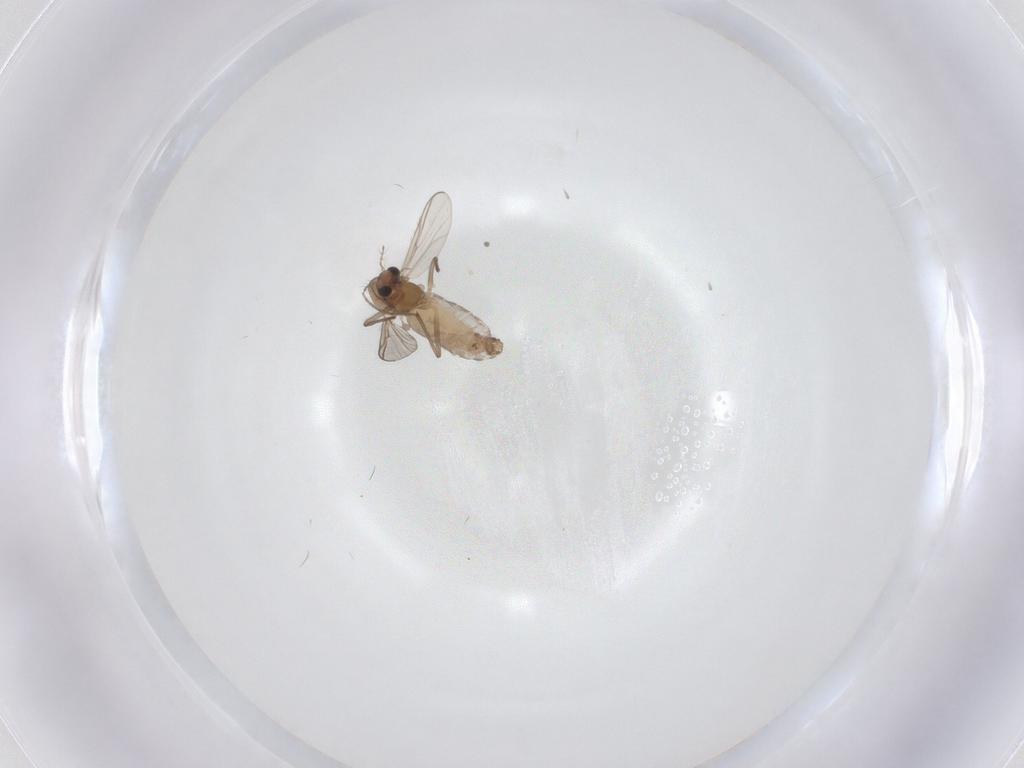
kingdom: Animalia
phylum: Arthropoda
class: Insecta
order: Diptera
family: Chironomidae
